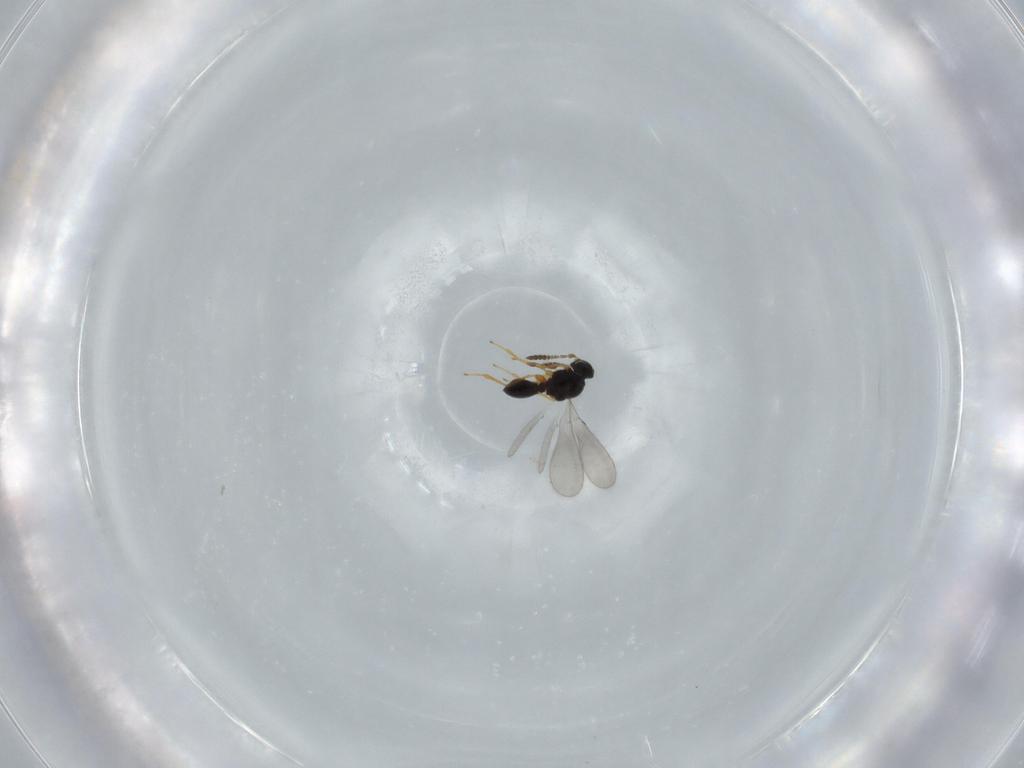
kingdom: Animalia
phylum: Arthropoda
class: Insecta
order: Hymenoptera
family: Platygastridae
